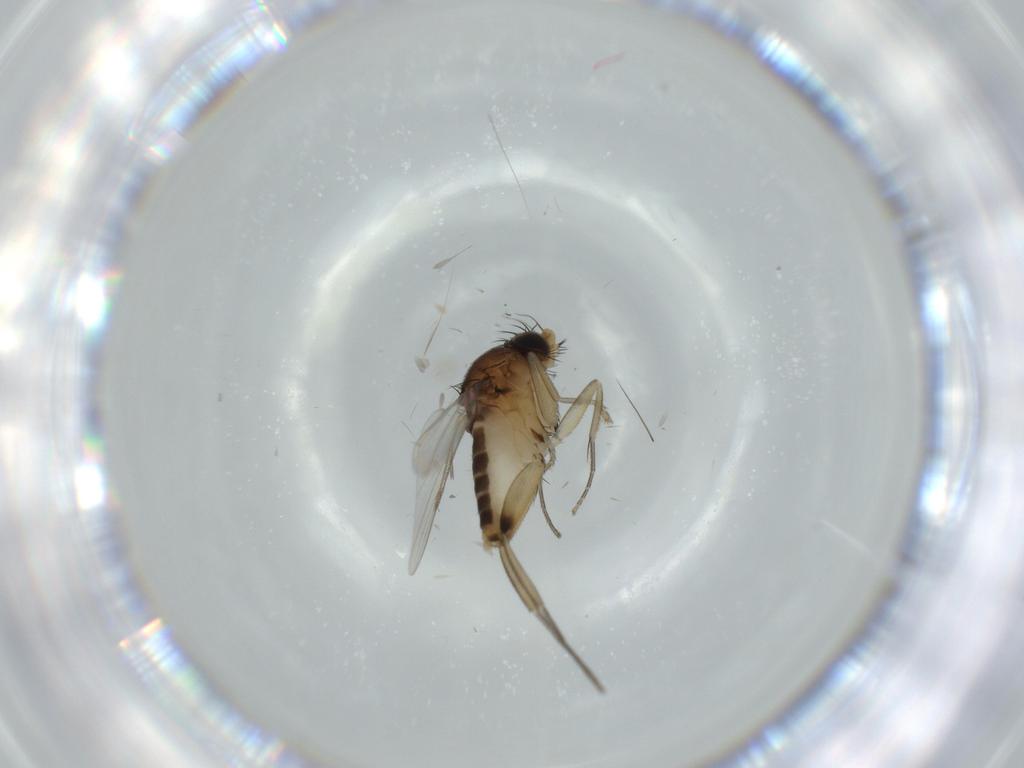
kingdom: Animalia
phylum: Arthropoda
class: Insecta
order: Diptera
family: Phoridae
